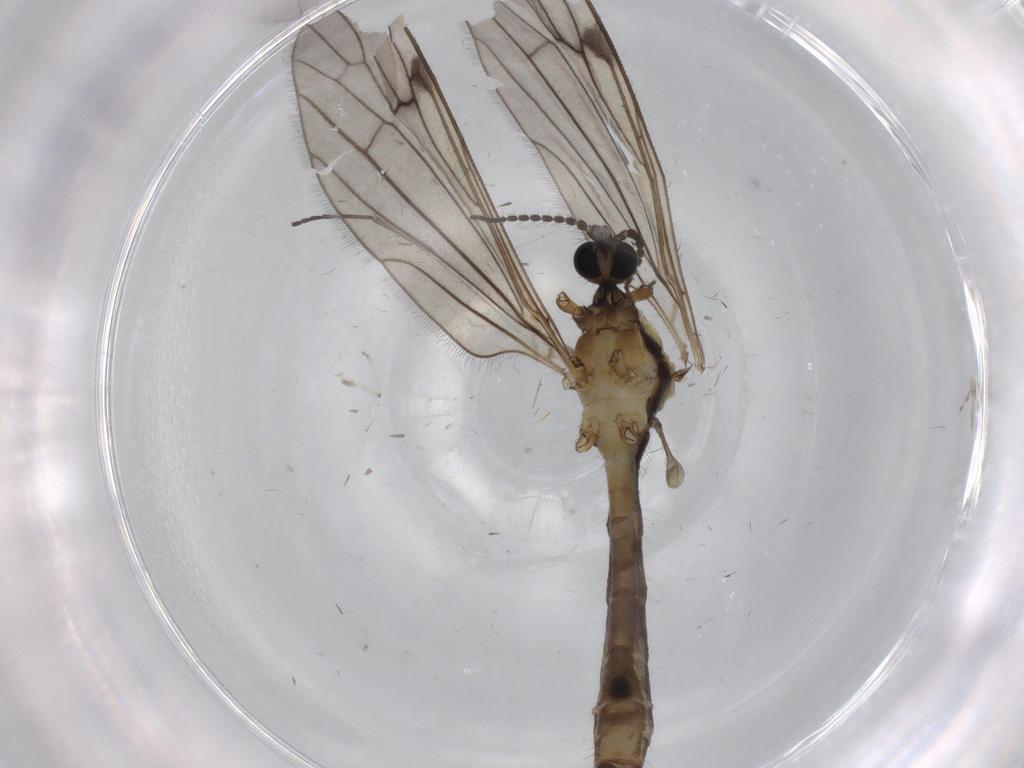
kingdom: Animalia
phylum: Arthropoda
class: Insecta
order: Diptera
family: Limoniidae
